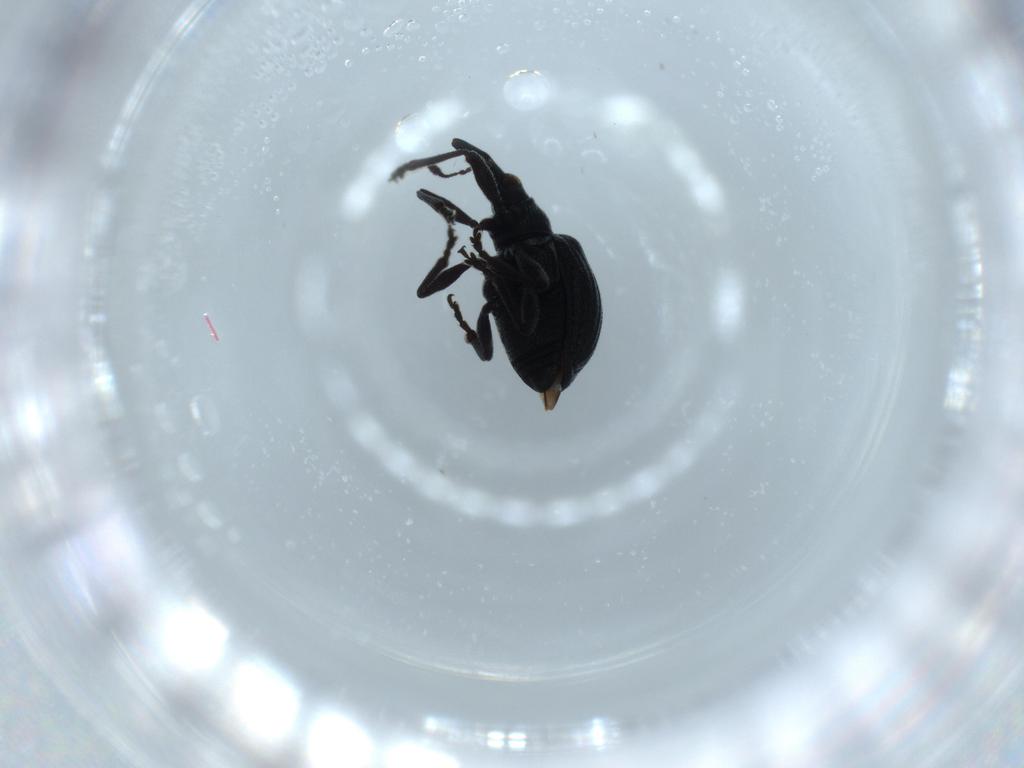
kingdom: Animalia
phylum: Arthropoda
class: Insecta
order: Coleoptera
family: Brentidae
